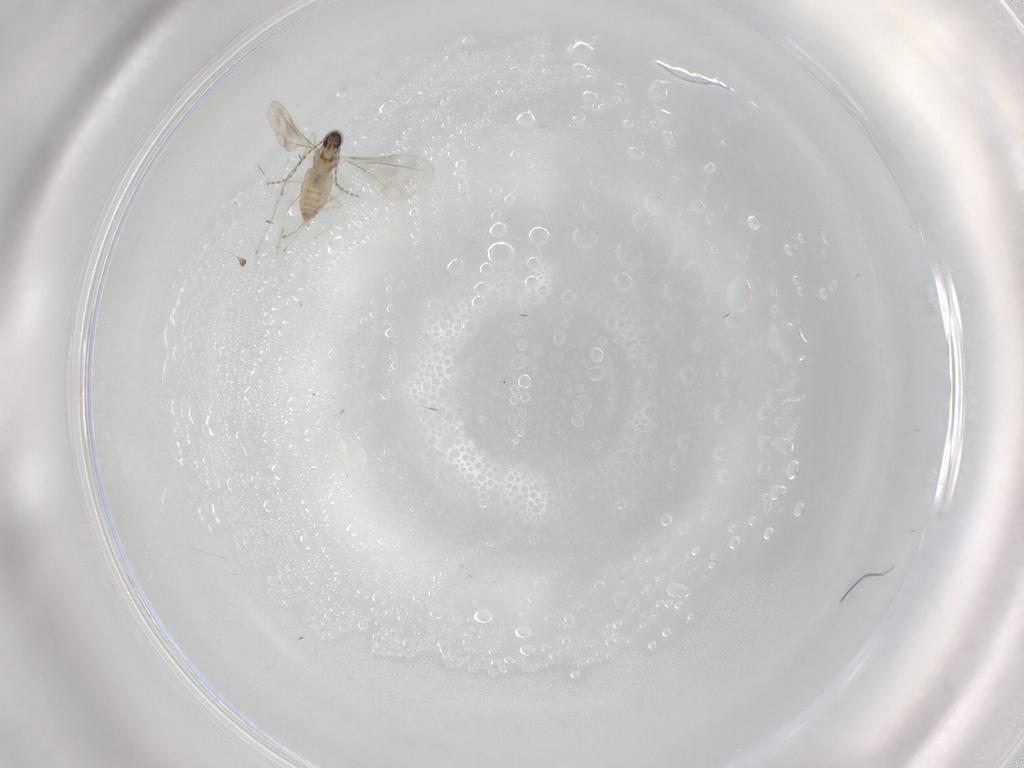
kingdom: Animalia
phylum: Arthropoda
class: Insecta
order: Diptera
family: Cecidomyiidae
